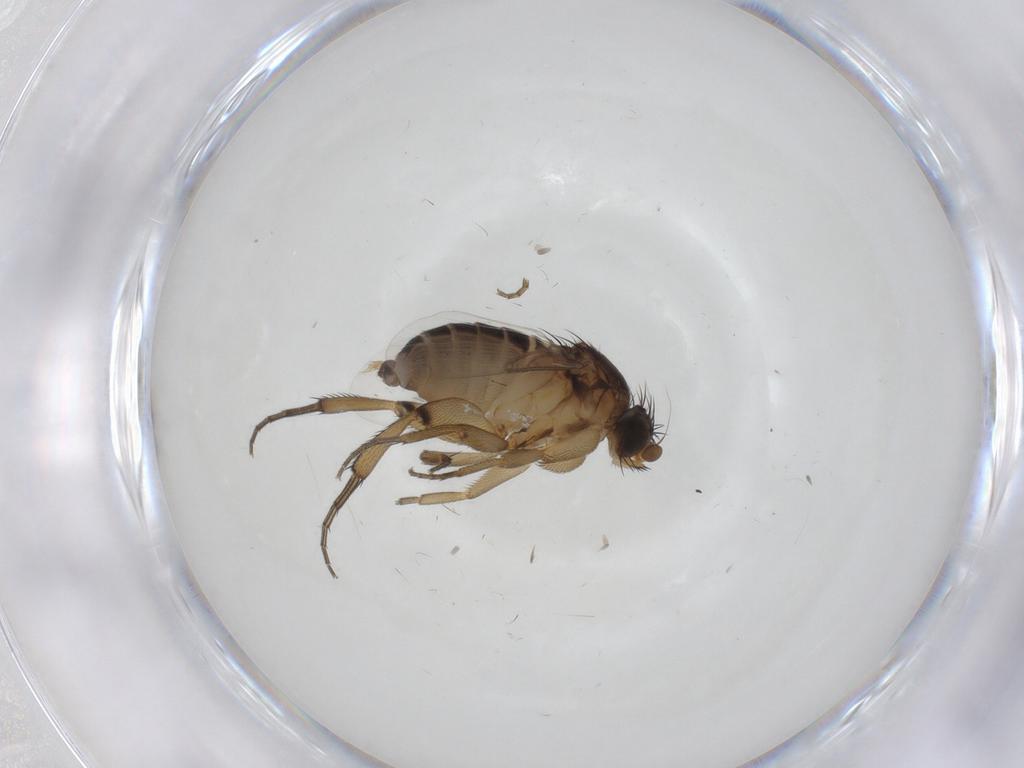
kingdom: Animalia
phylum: Arthropoda
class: Insecta
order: Diptera
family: Phoridae
